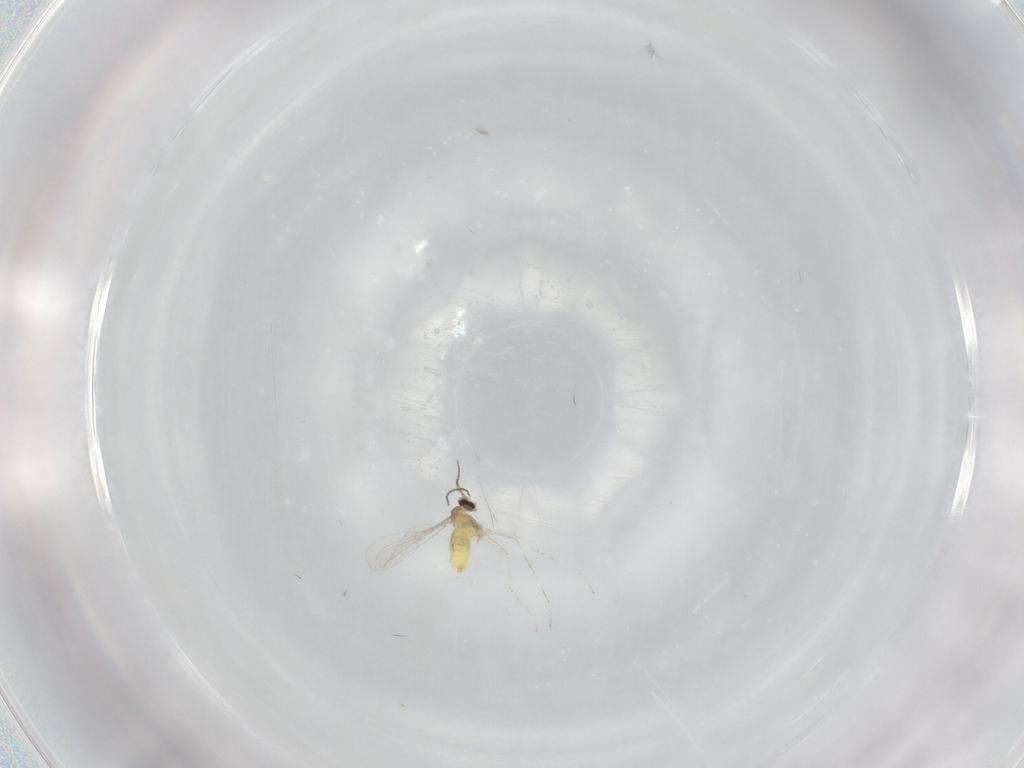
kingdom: Animalia
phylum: Arthropoda
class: Insecta
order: Diptera
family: Cecidomyiidae
